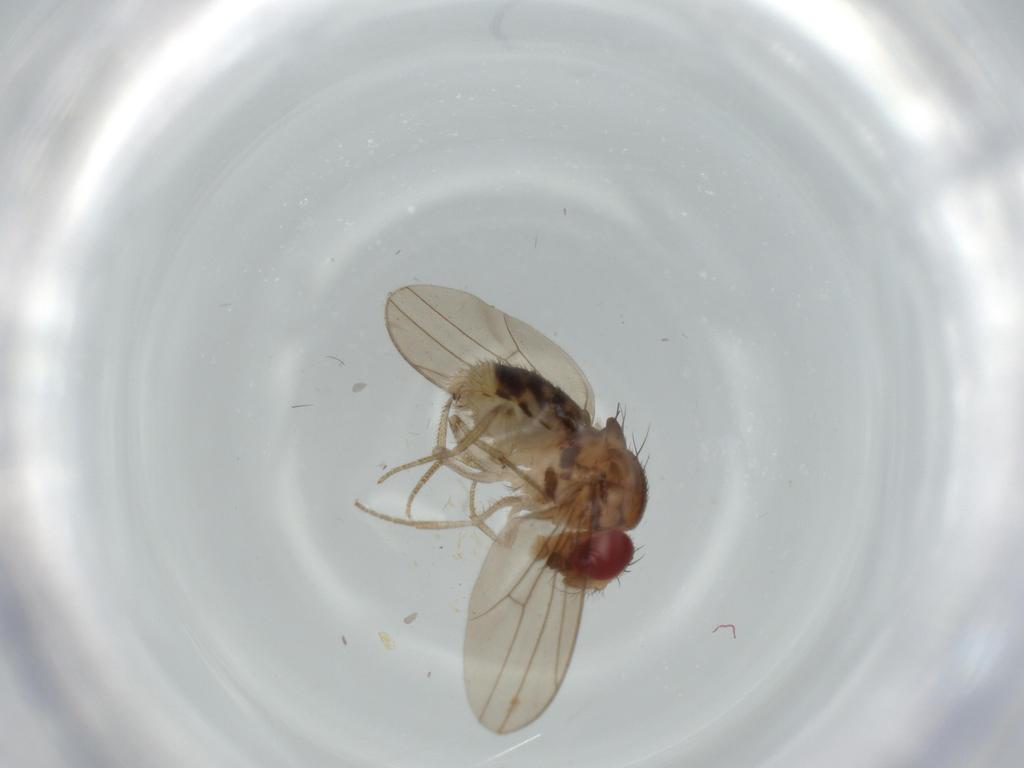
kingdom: Animalia
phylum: Arthropoda
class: Insecta
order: Diptera
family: Drosophilidae
